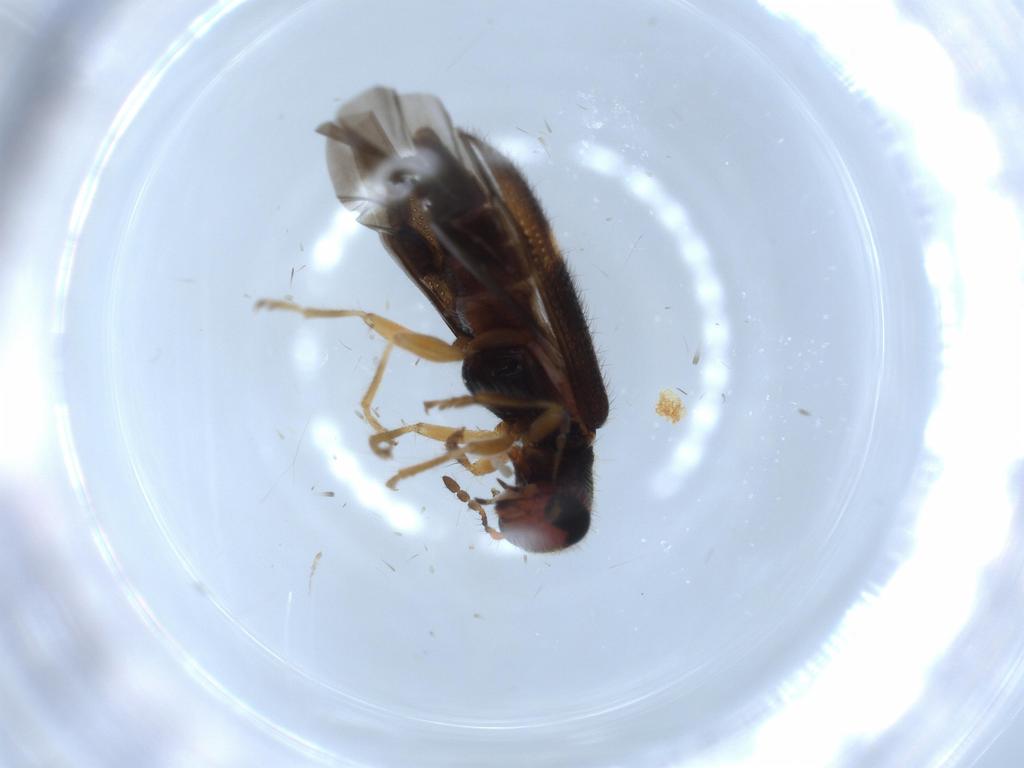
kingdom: Animalia
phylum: Arthropoda
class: Insecta
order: Coleoptera
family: Cleridae
